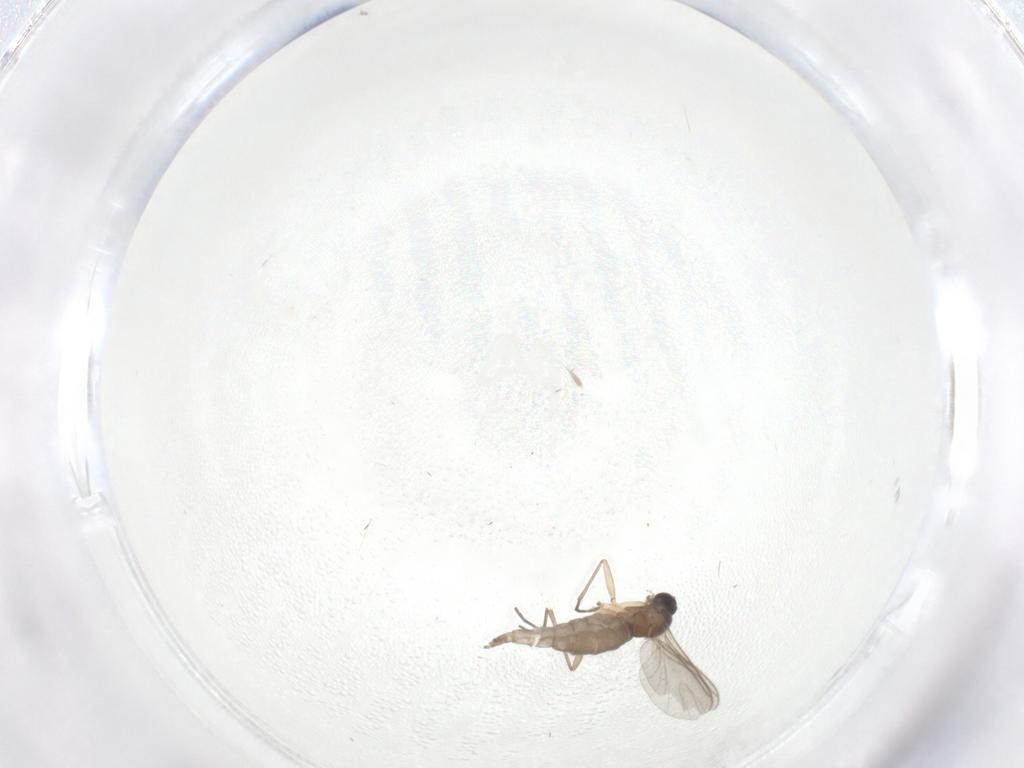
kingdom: Animalia
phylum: Arthropoda
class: Insecta
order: Diptera
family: Sciaridae
